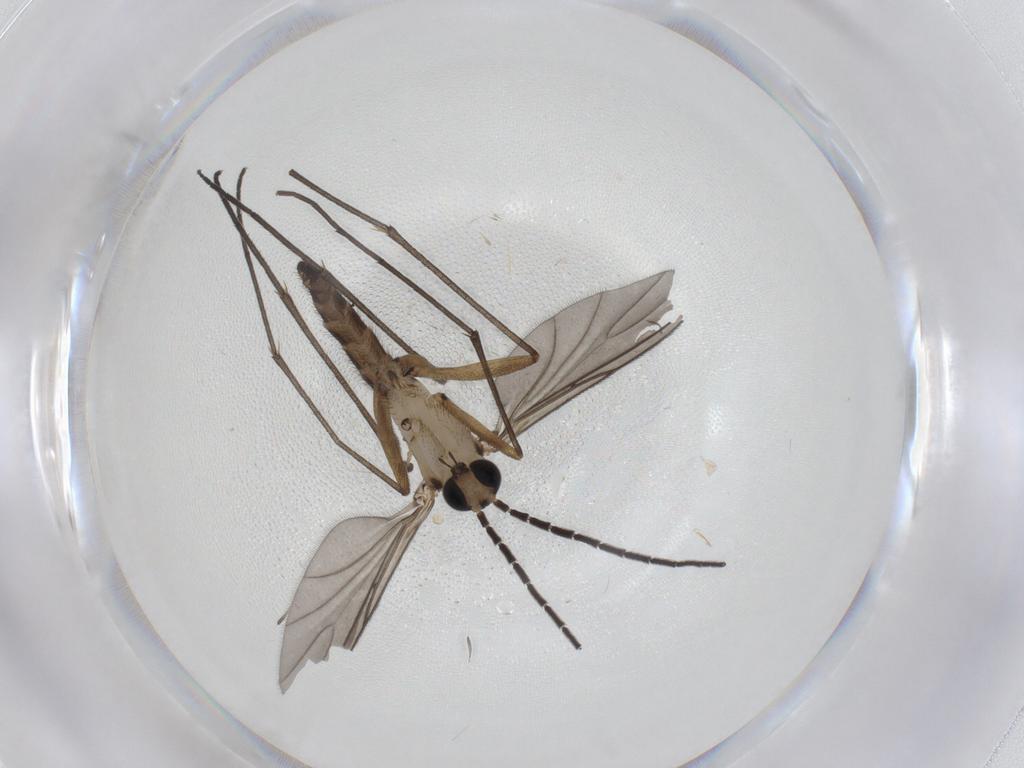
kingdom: Animalia
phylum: Arthropoda
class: Insecta
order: Diptera
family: Sciaridae
